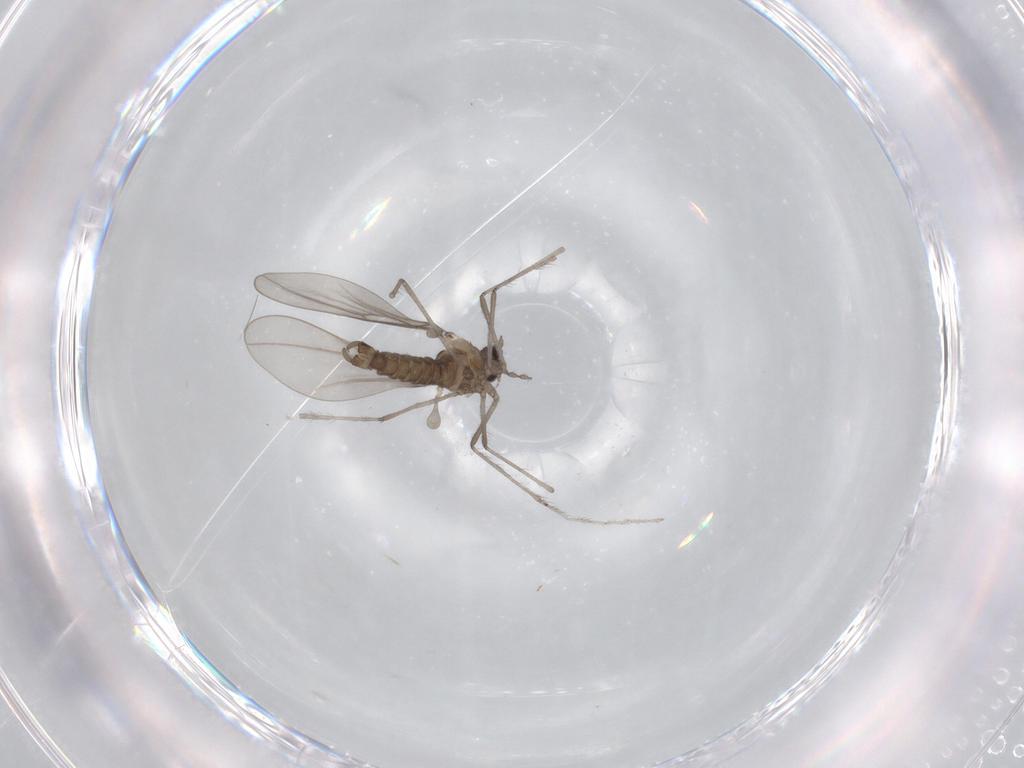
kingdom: Animalia
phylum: Arthropoda
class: Insecta
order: Diptera
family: Cecidomyiidae
